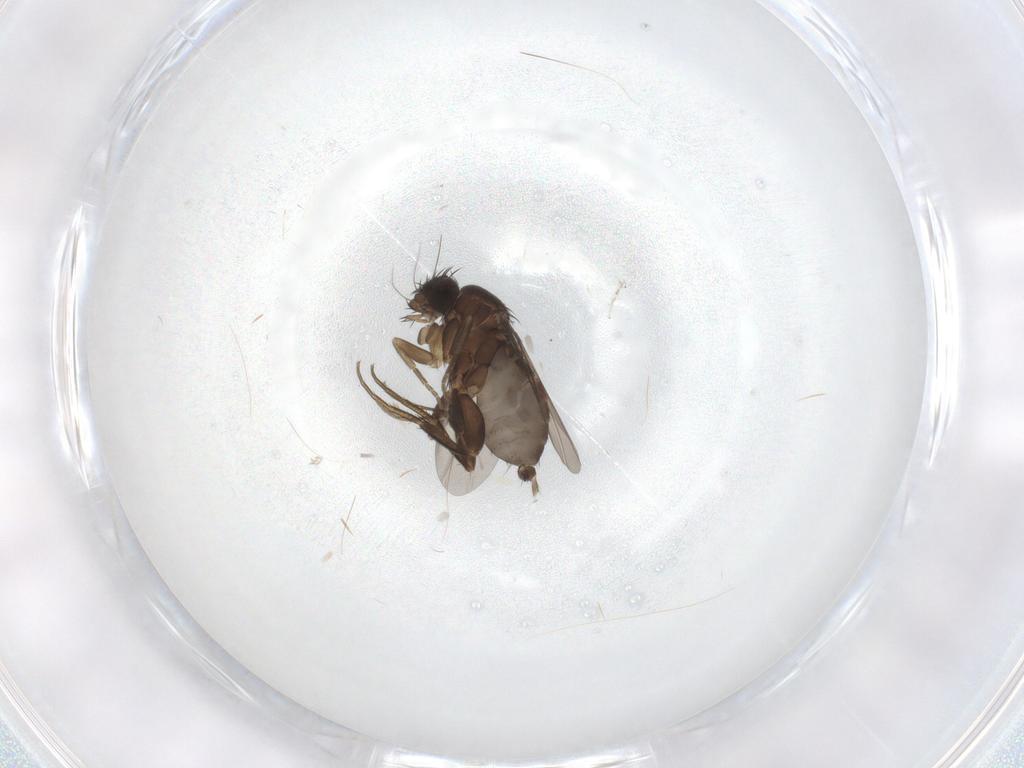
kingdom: Animalia
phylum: Arthropoda
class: Insecta
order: Diptera
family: Phoridae
